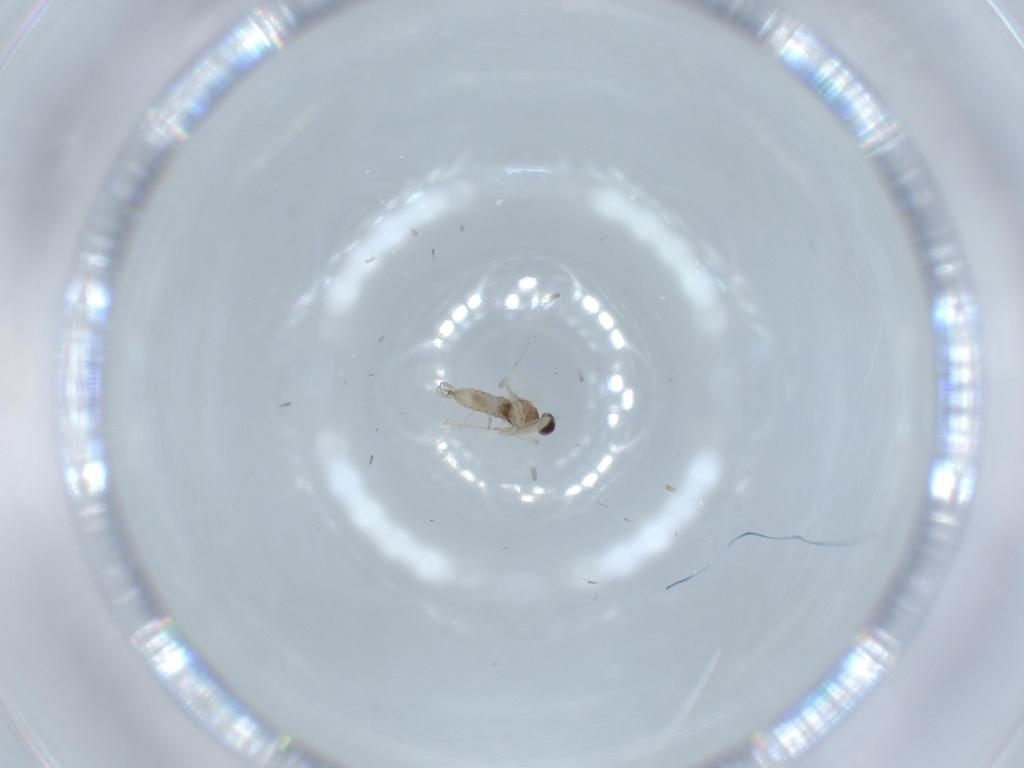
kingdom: Animalia
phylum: Arthropoda
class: Insecta
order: Diptera
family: Cecidomyiidae
